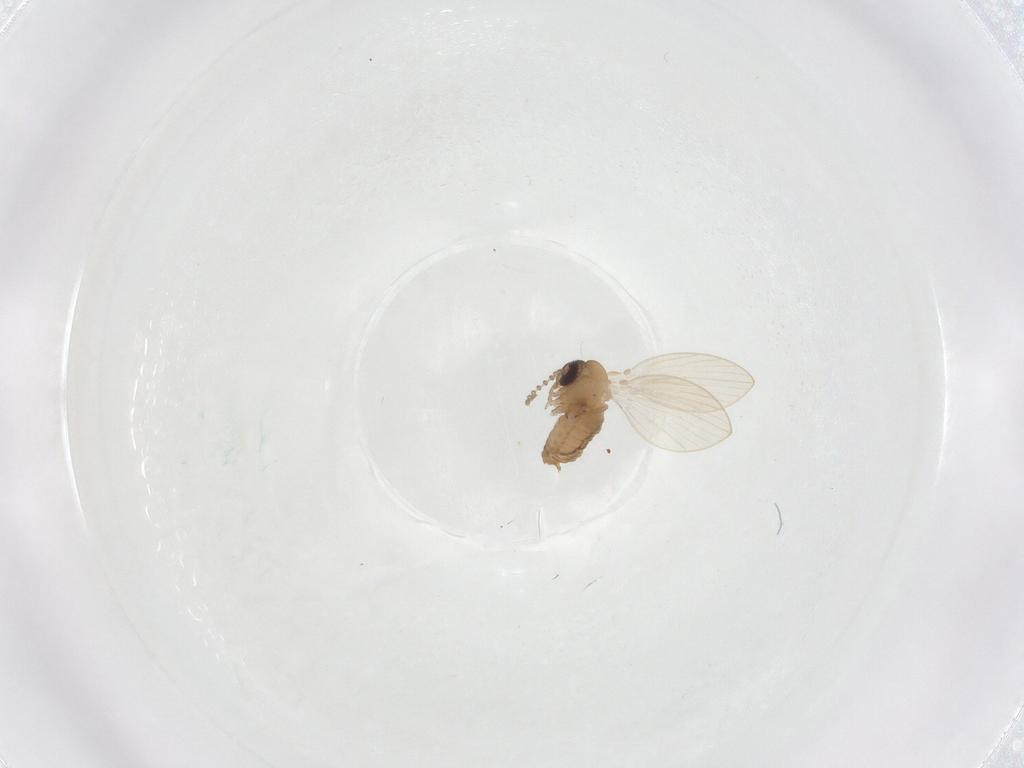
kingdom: Animalia
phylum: Arthropoda
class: Insecta
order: Diptera
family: Psychodidae
